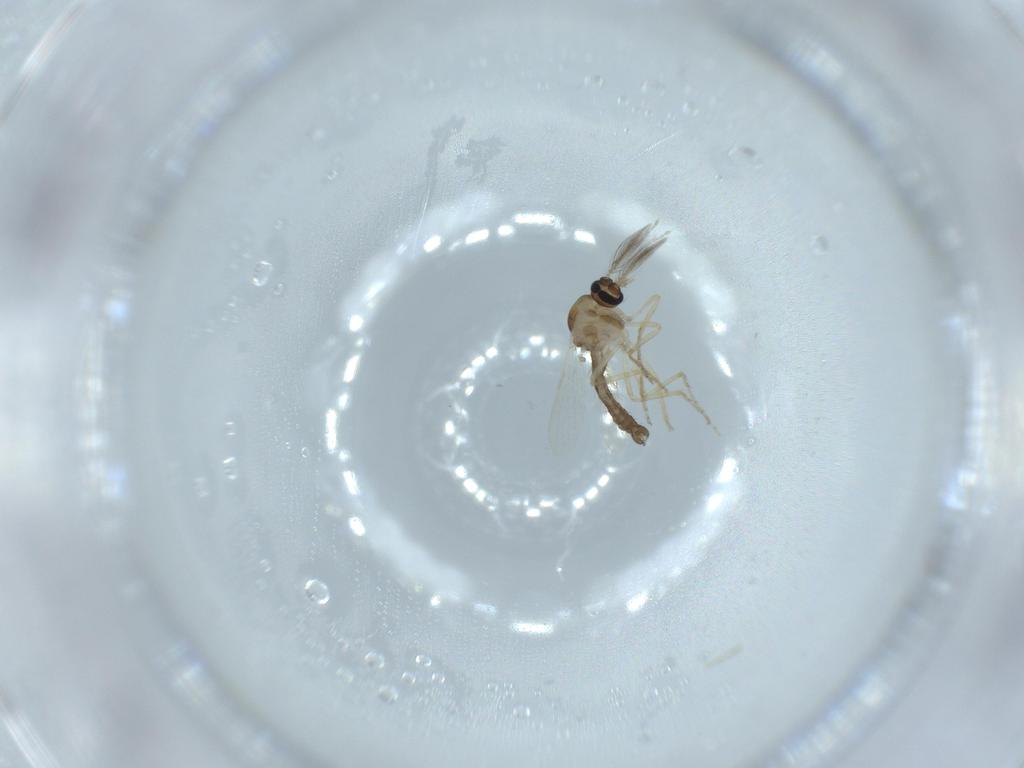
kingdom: Animalia
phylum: Arthropoda
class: Insecta
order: Diptera
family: Ceratopogonidae
